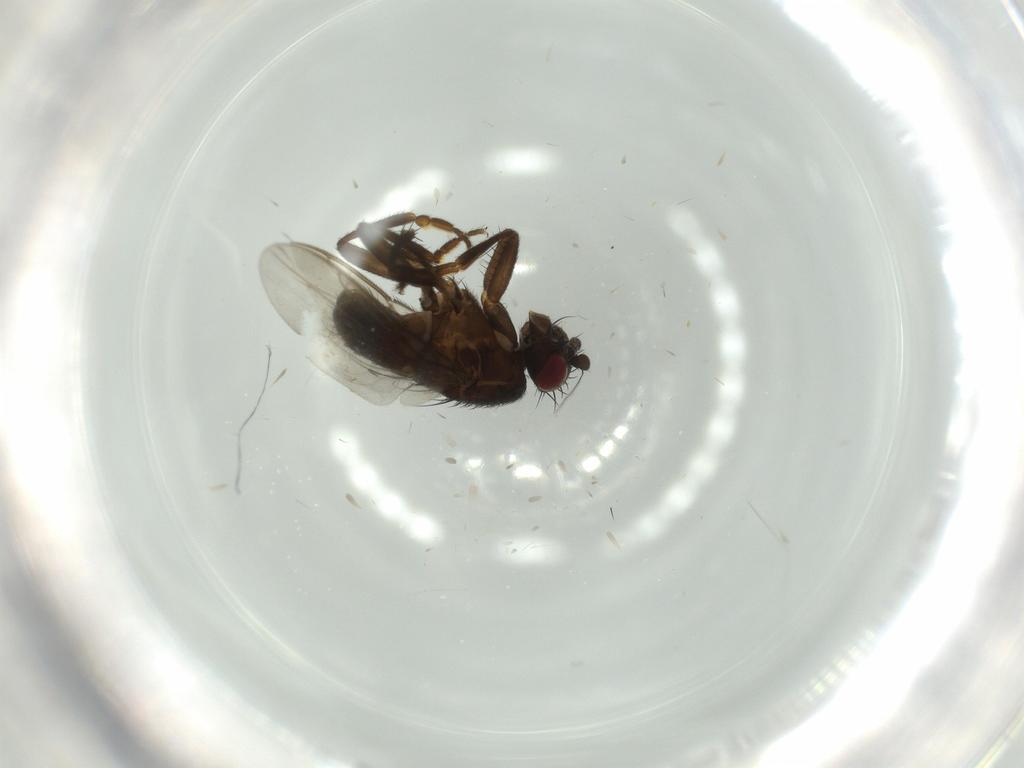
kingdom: Animalia
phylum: Arthropoda
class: Insecta
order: Diptera
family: Sphaeroceridae
